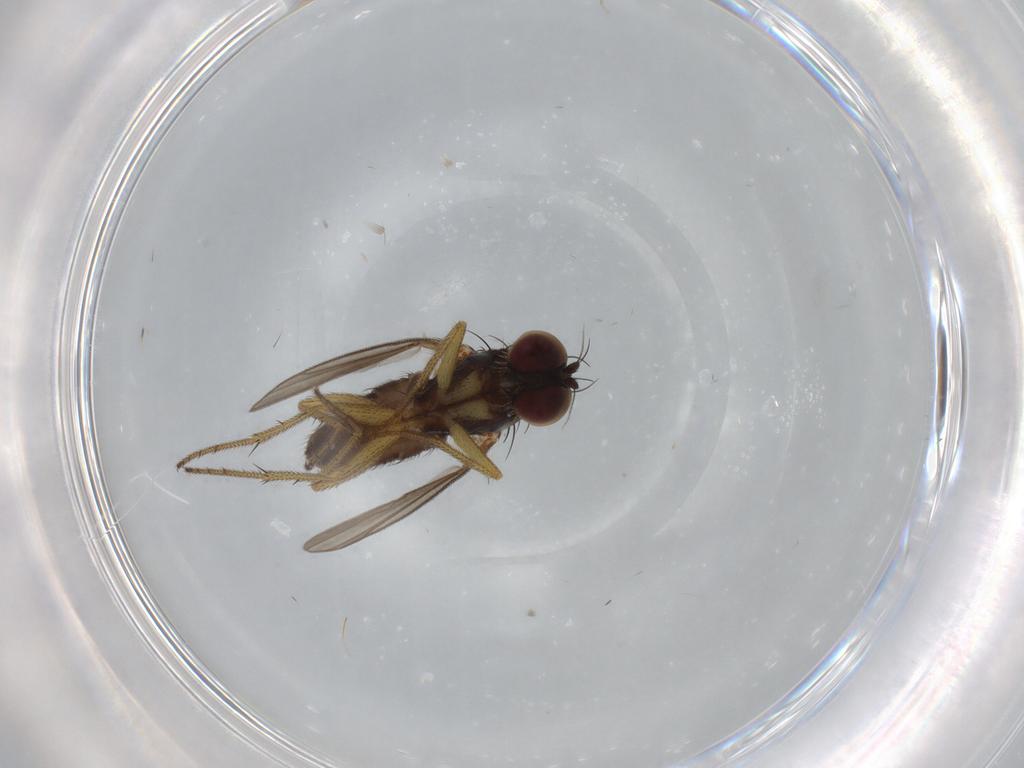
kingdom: Animalia
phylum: Arthropoda
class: Insecta
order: Diptera
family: Dolichopodidae
